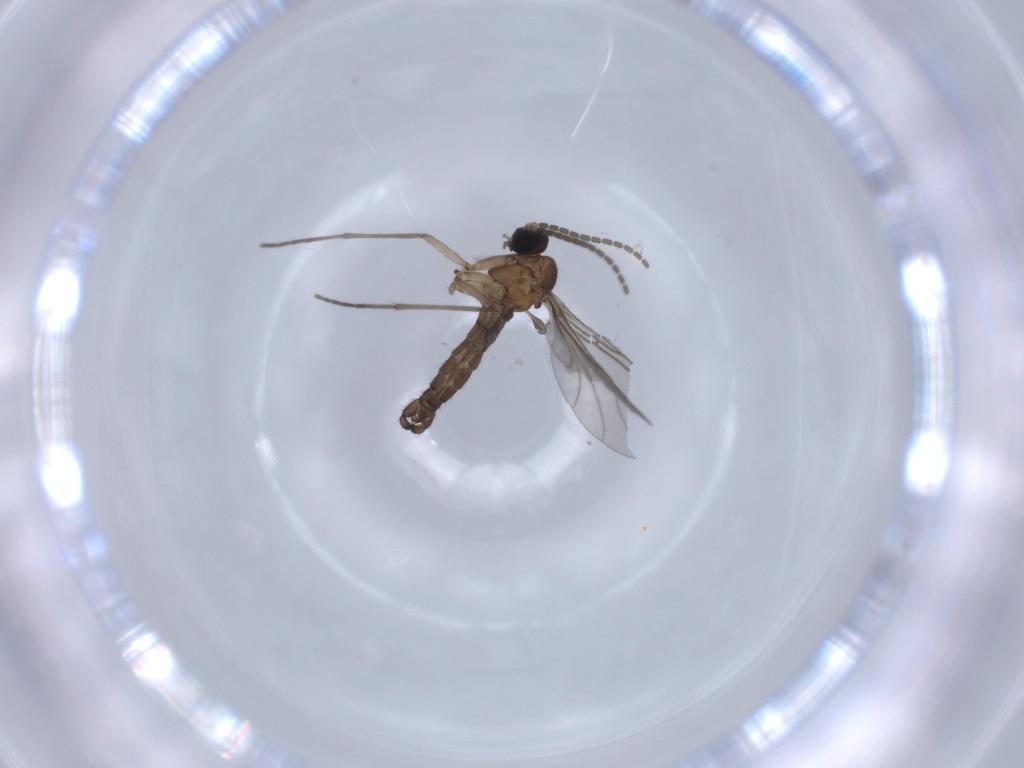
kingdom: Animalia
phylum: Arthropoda
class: Insecta
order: Diptera
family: Sciaridae
